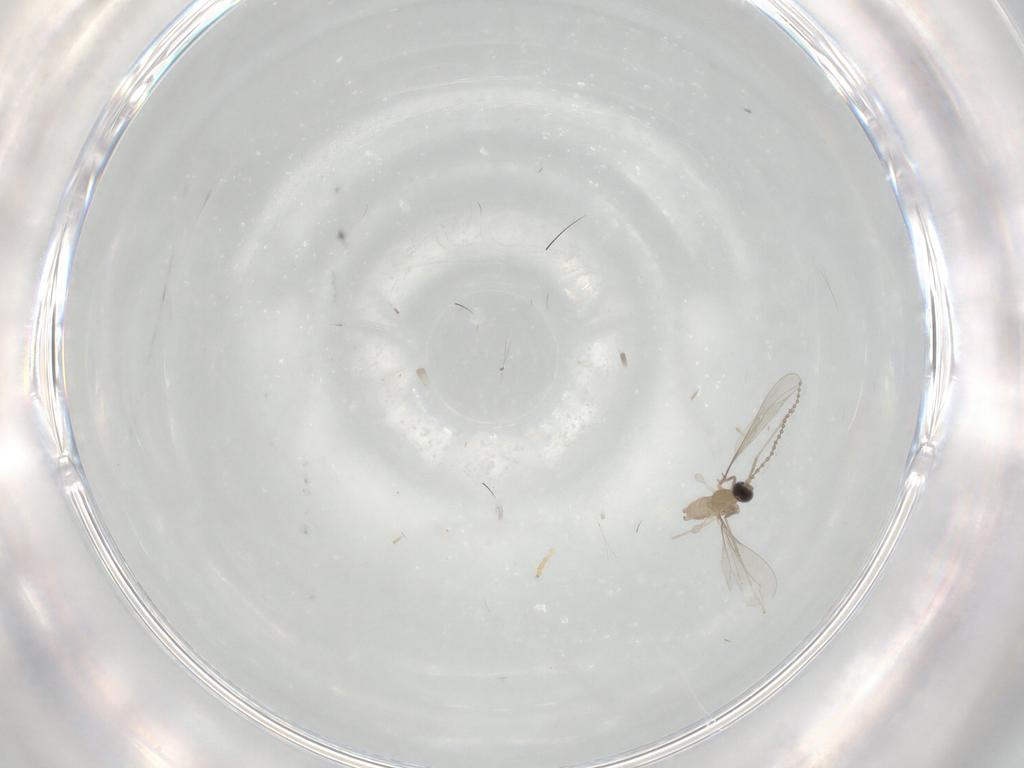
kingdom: Animalia
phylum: Arthropoda
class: Insecta
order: Diptera
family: Cecidomyiidae
